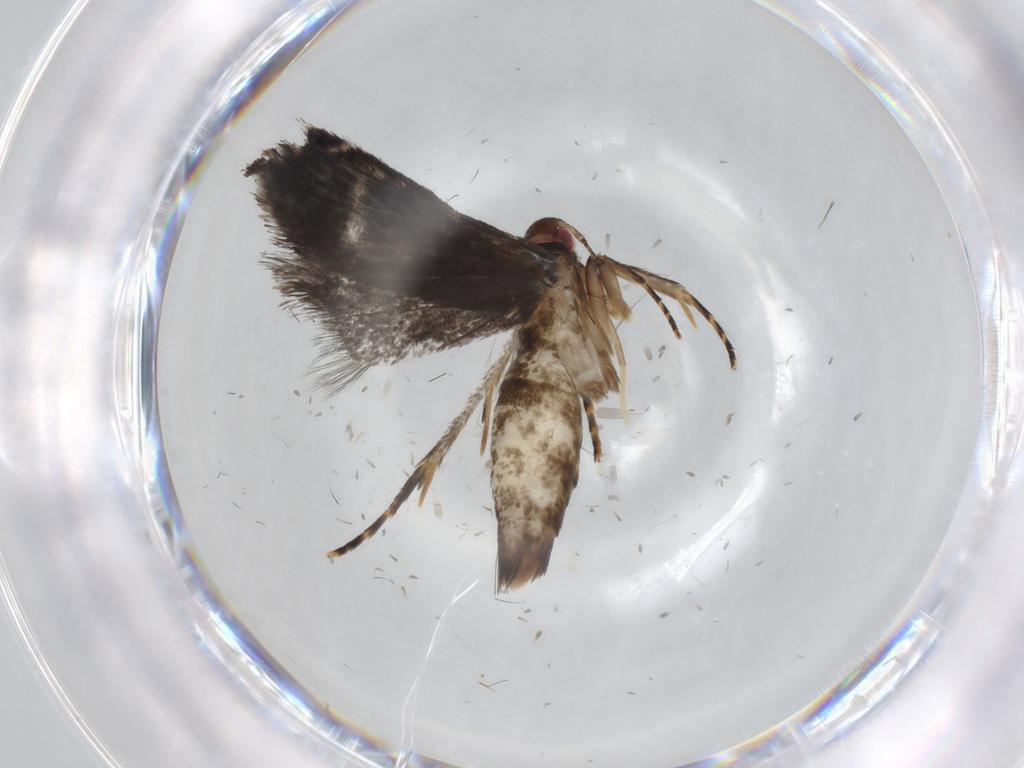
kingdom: Animalia
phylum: Arthropoda
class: Insecta
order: Lepidoptera
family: Gelechiidae
